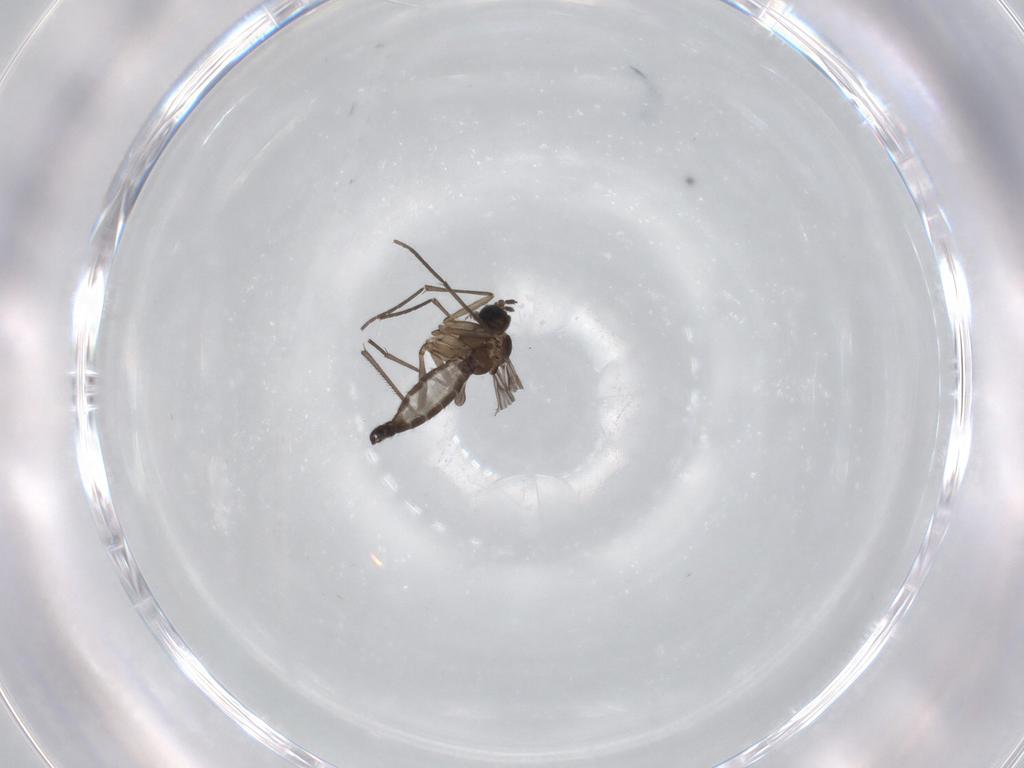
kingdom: Animalia
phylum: Arthropoda
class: Insecta
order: Diptera
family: Sciaridae
